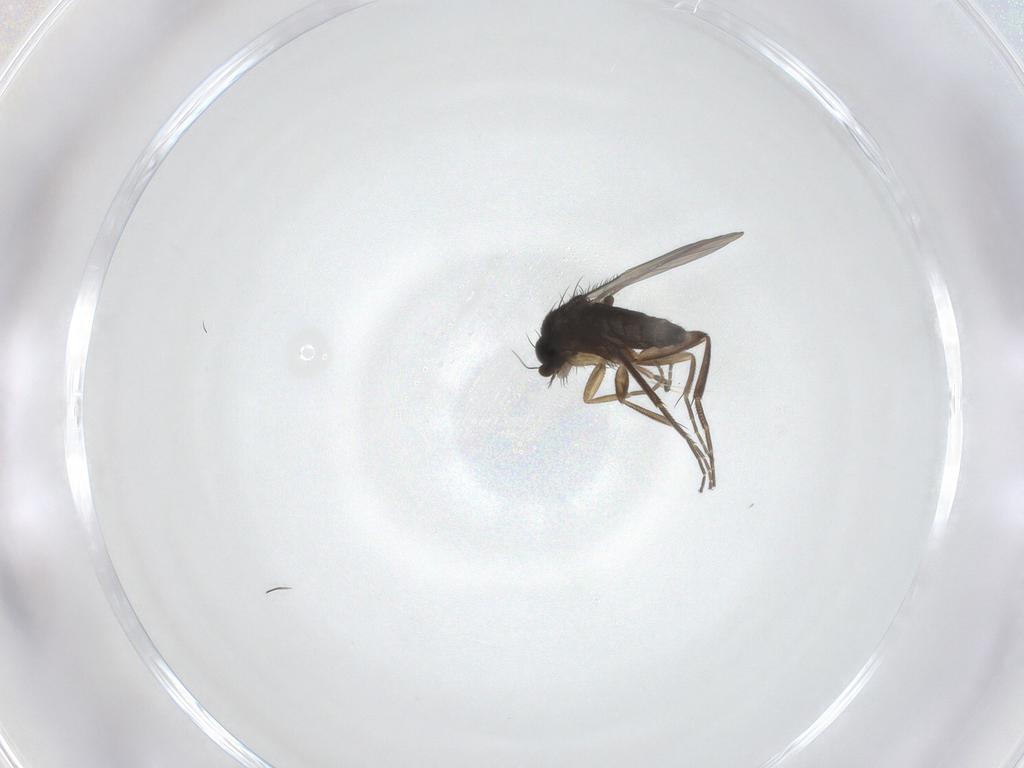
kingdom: Animalia
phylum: Arthropoda
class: Insecta
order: Diptera
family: Phoridae
